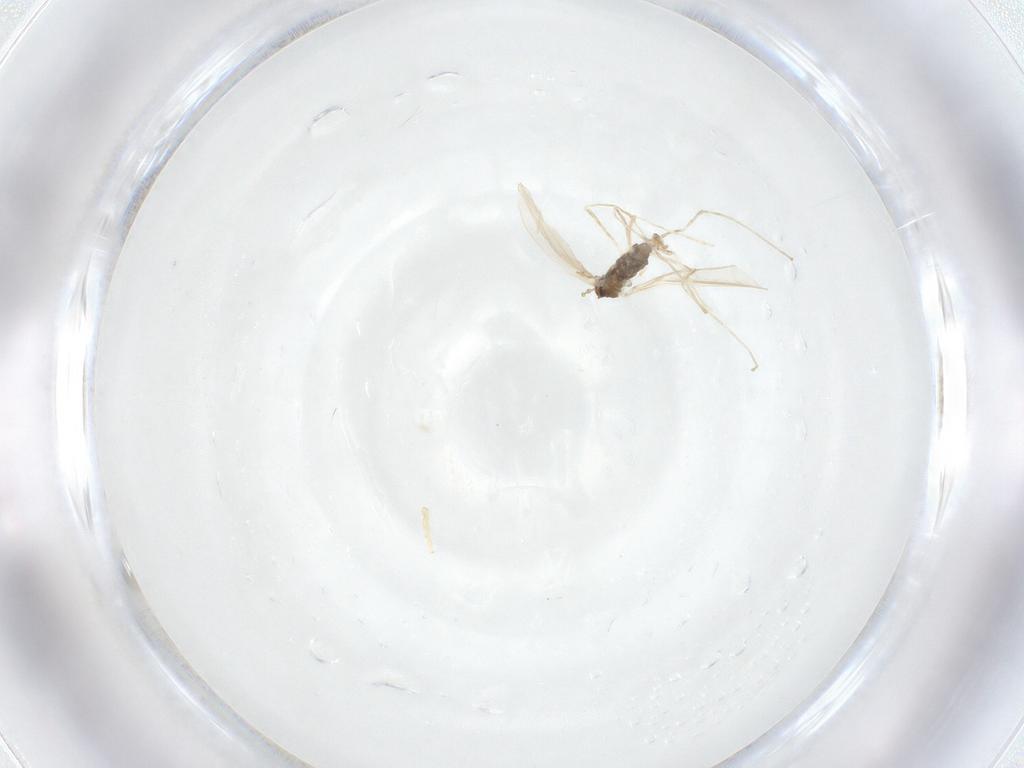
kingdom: Animalia
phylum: Arthropoda
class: Insecta
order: Diptera
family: Cecidomyiidae
